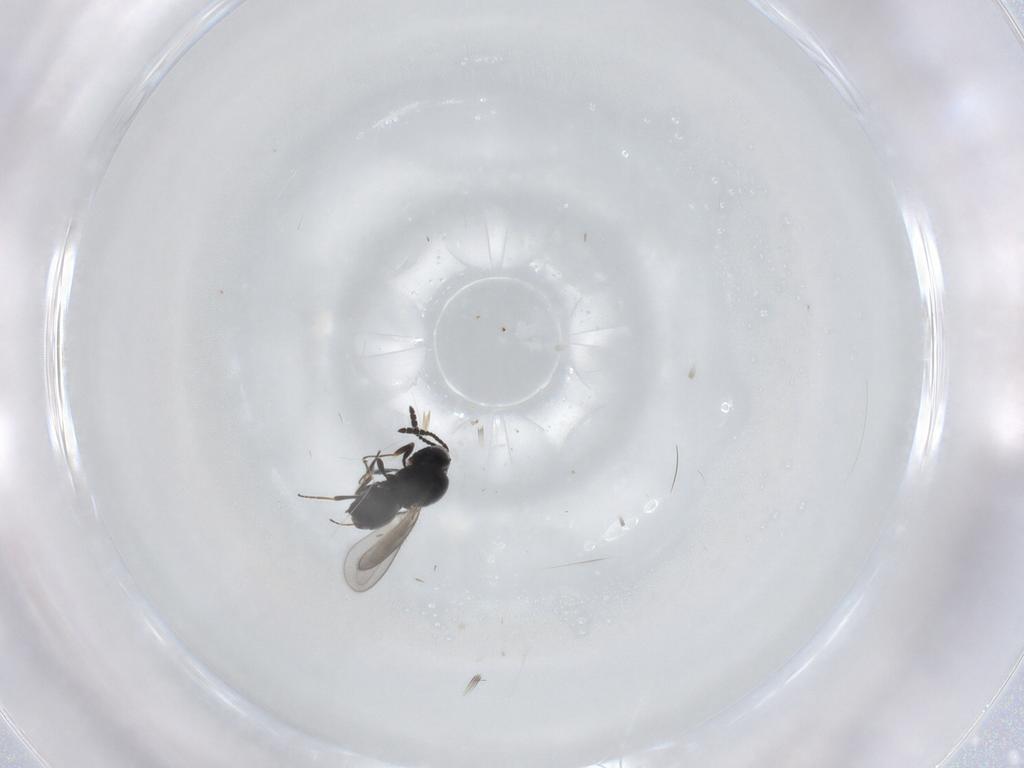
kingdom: Animalia
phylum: Arthropoda
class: Insecta
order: Hymenoptera
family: Scelionidae
